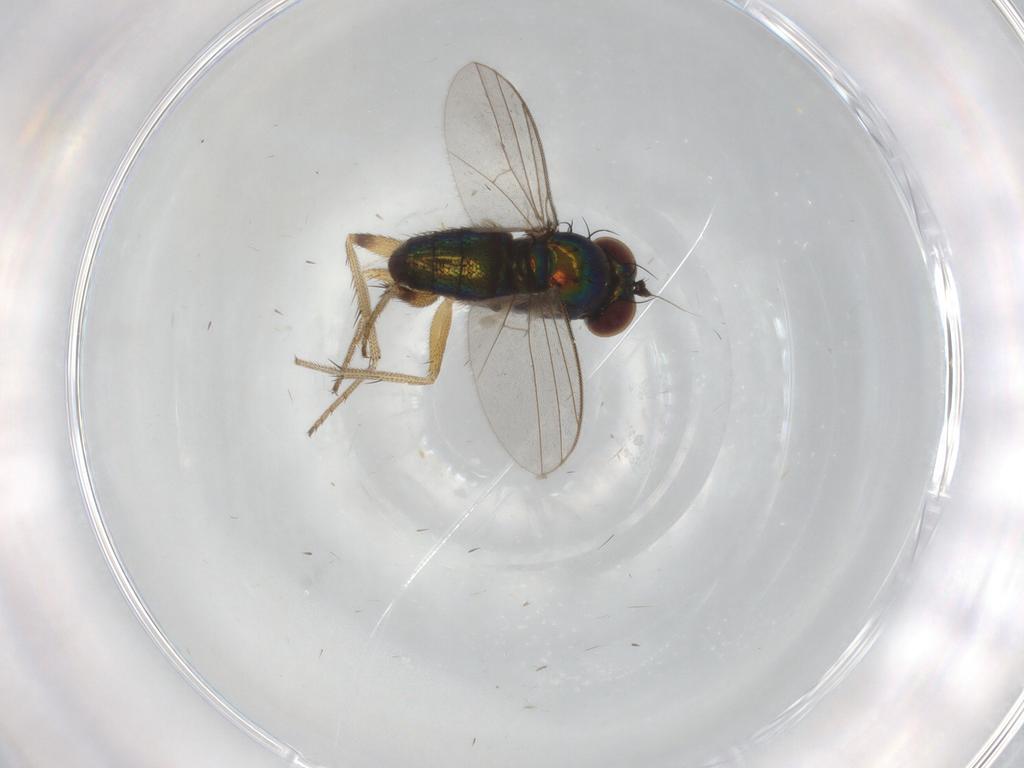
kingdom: Animalia
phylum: Arthropoda
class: Insecta
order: Diptera
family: Dolichopodidae
